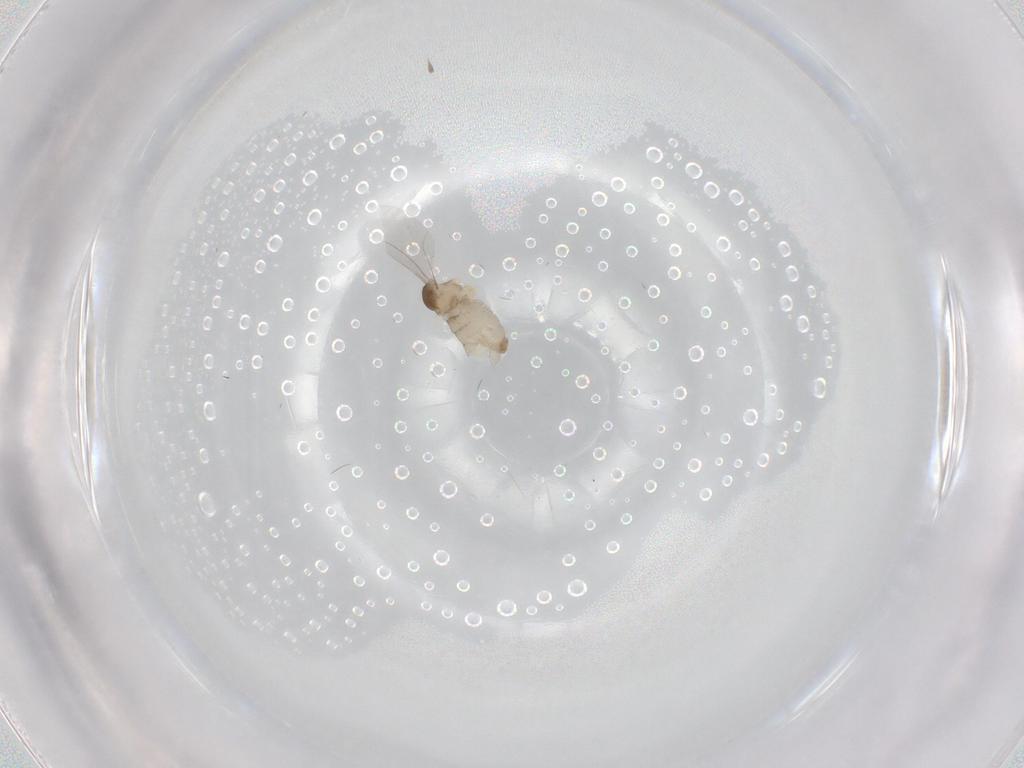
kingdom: Animalia
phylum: Arthropoda
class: Insecta
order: Diptera
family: Cecidomyiidae
